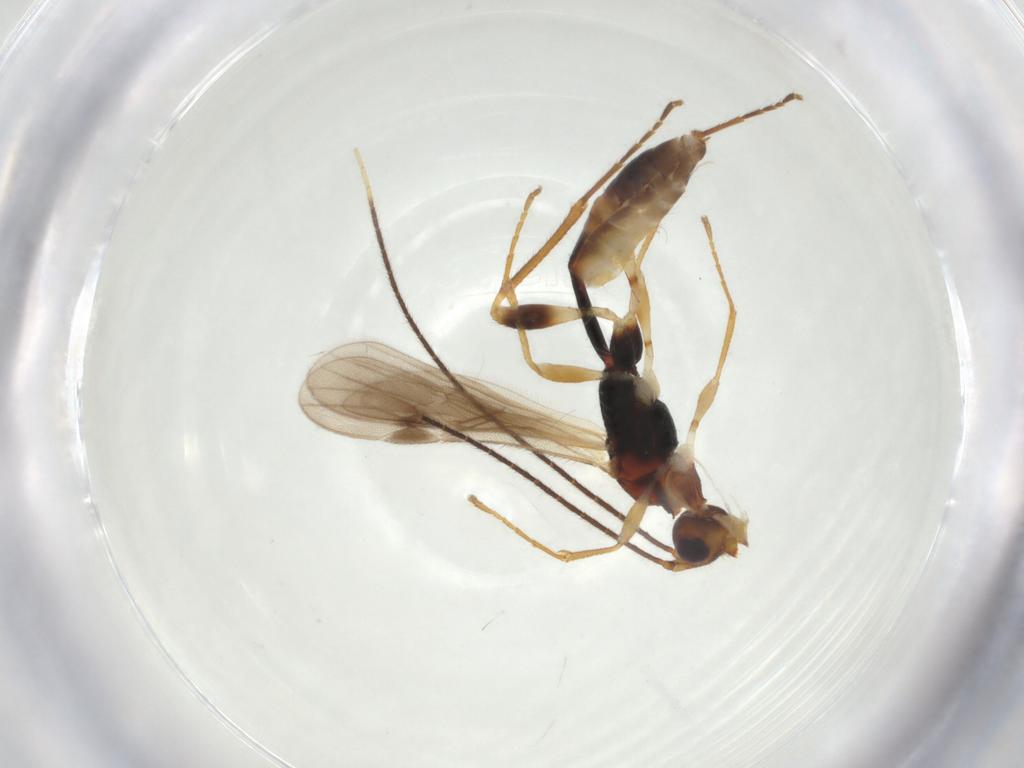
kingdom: Animalia
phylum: Arthropoda
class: Insecta
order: Hymenoptera
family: Braconidae
